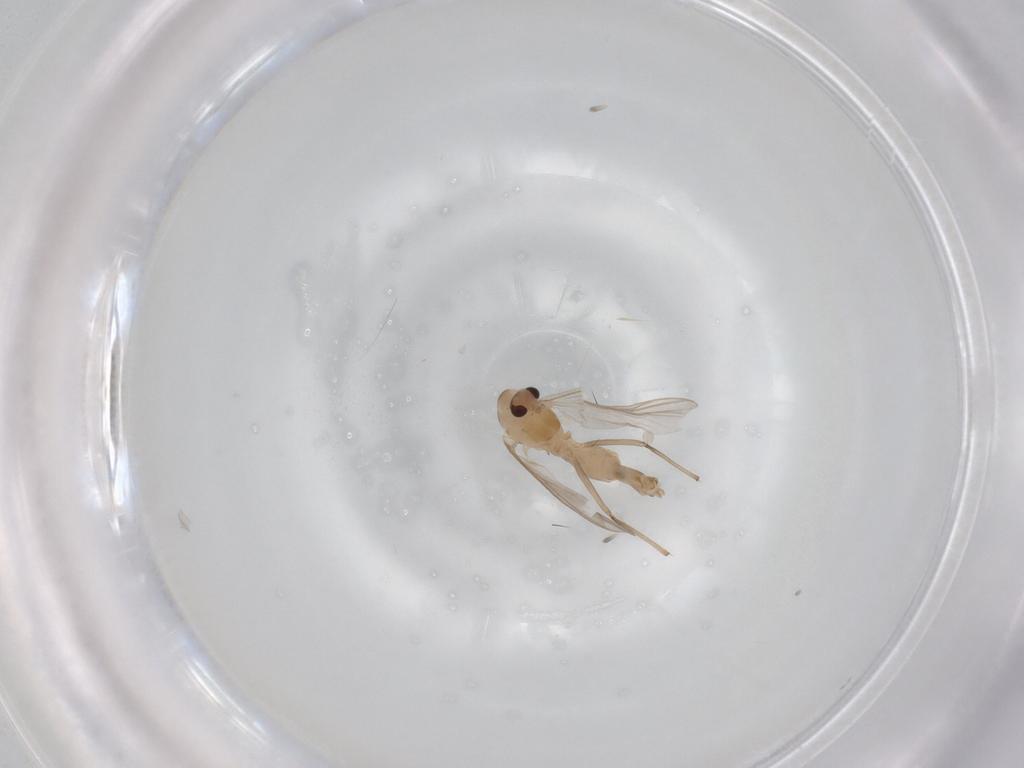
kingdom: Animalia
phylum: Arthropoda
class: Insecta
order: Diptera
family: Chironomidae
